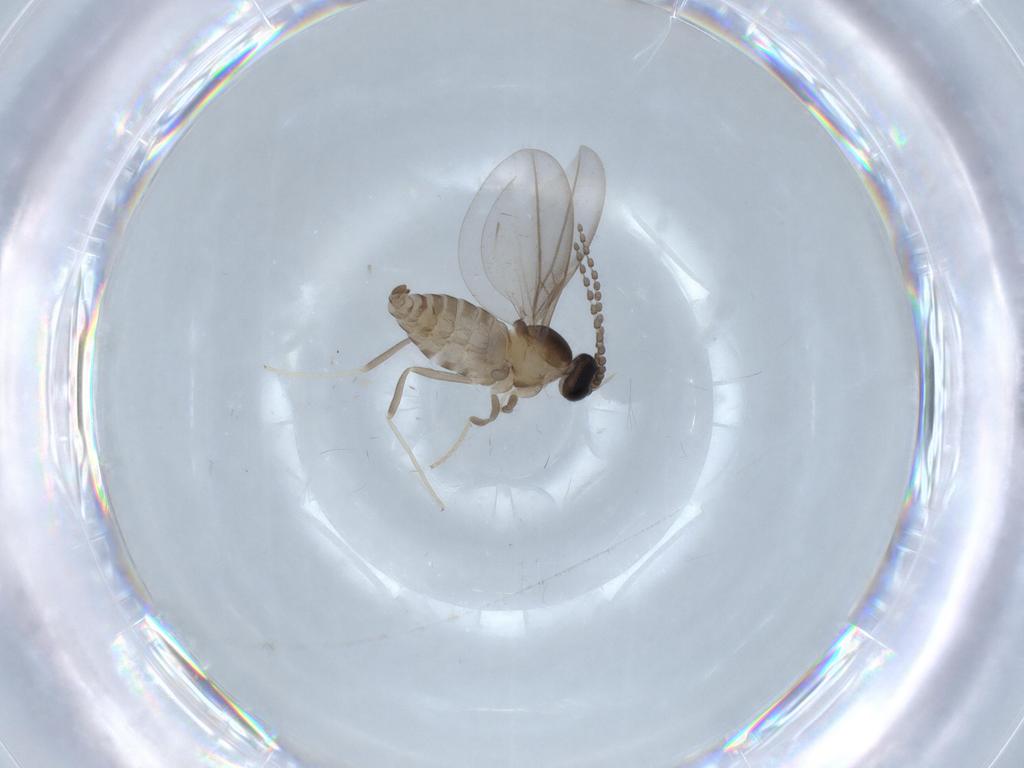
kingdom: Animalia
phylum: Arthropoda
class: Insecta
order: Diptera
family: Cecidomyiidae
